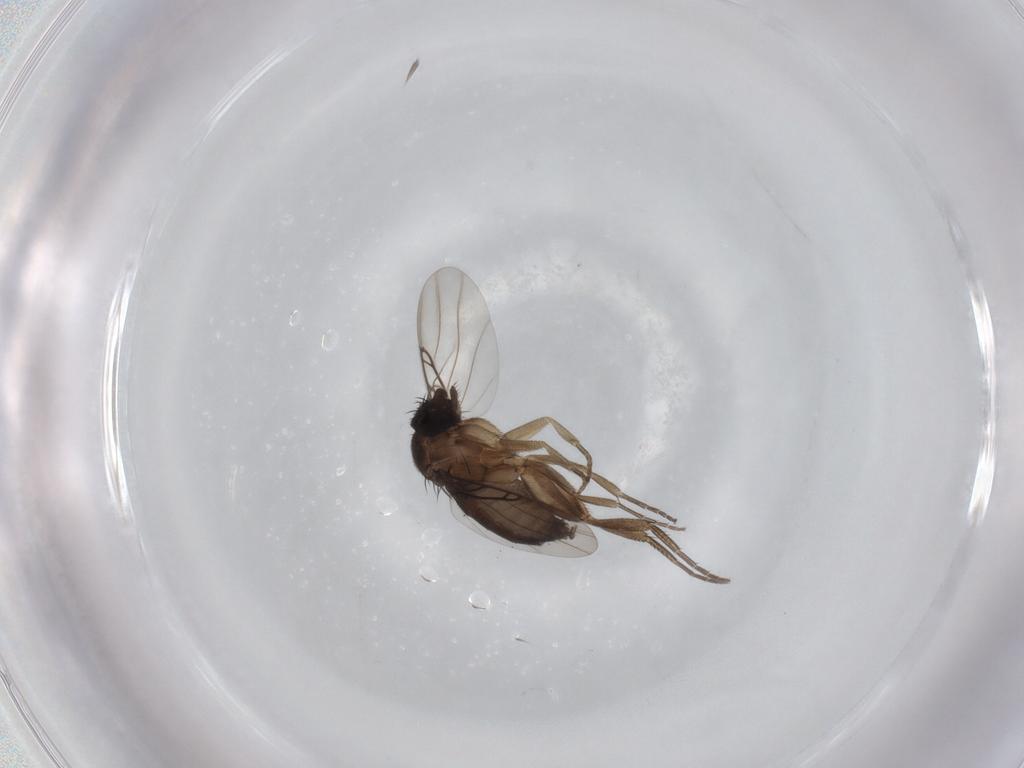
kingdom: Animalia
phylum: Arthropoda
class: Insecta
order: Diptera
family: Phoridae
